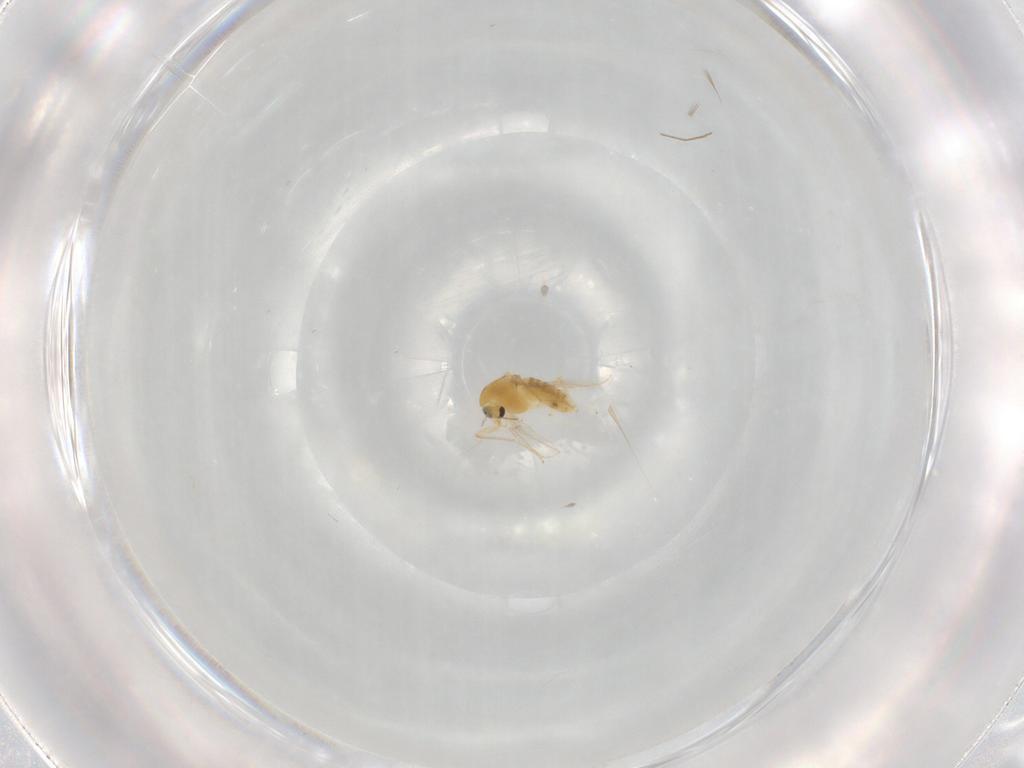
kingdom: Animalia
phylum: Arthropoda
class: Insecta
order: Diptera
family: Chironomidae
